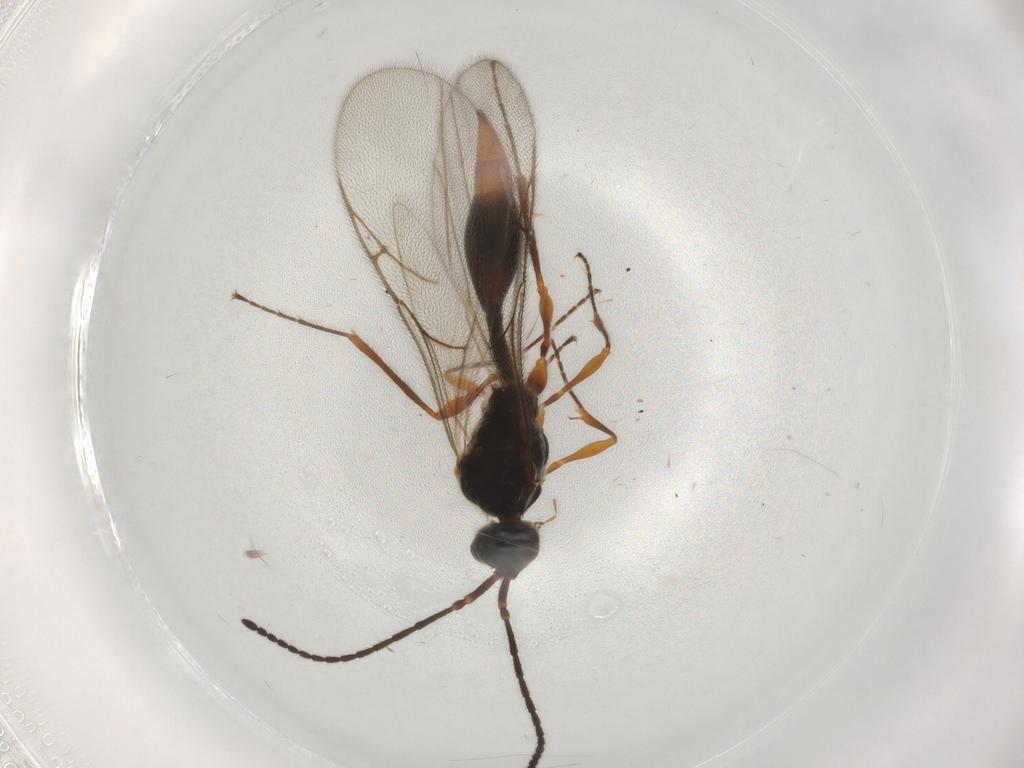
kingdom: Animalia
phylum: Arthropoda
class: Insecta
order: Hymenoptera
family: Diapriidae
